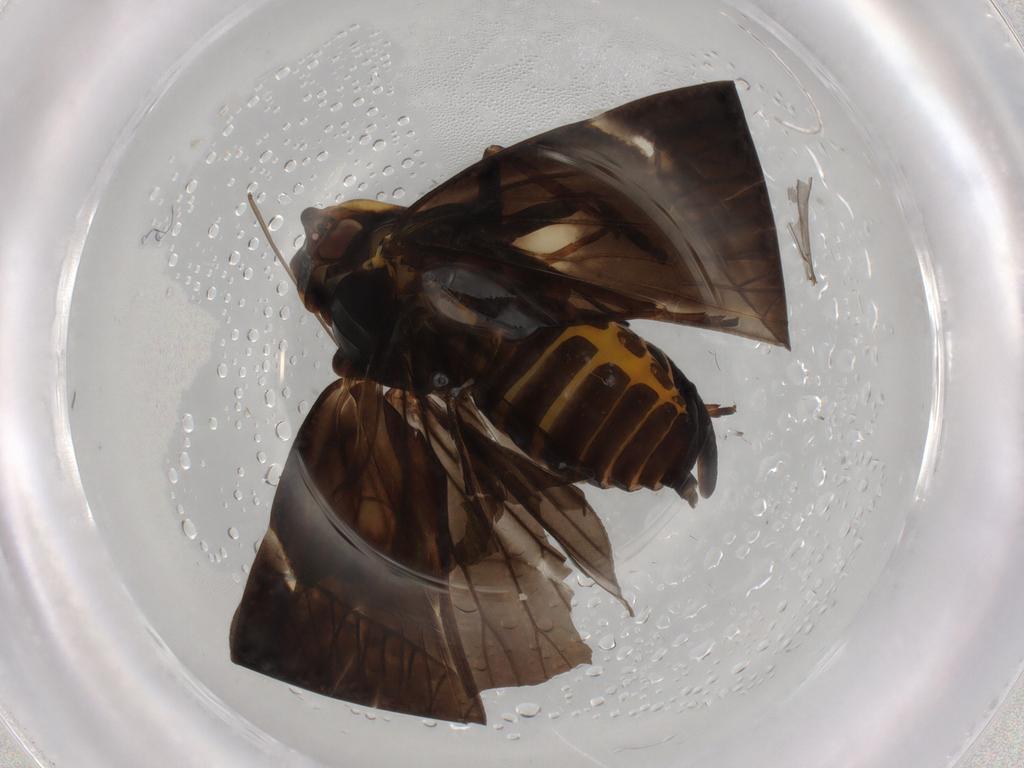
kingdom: Animalia
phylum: Arthropoda
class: Insecta
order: Hemiptera
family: Cixiidae
